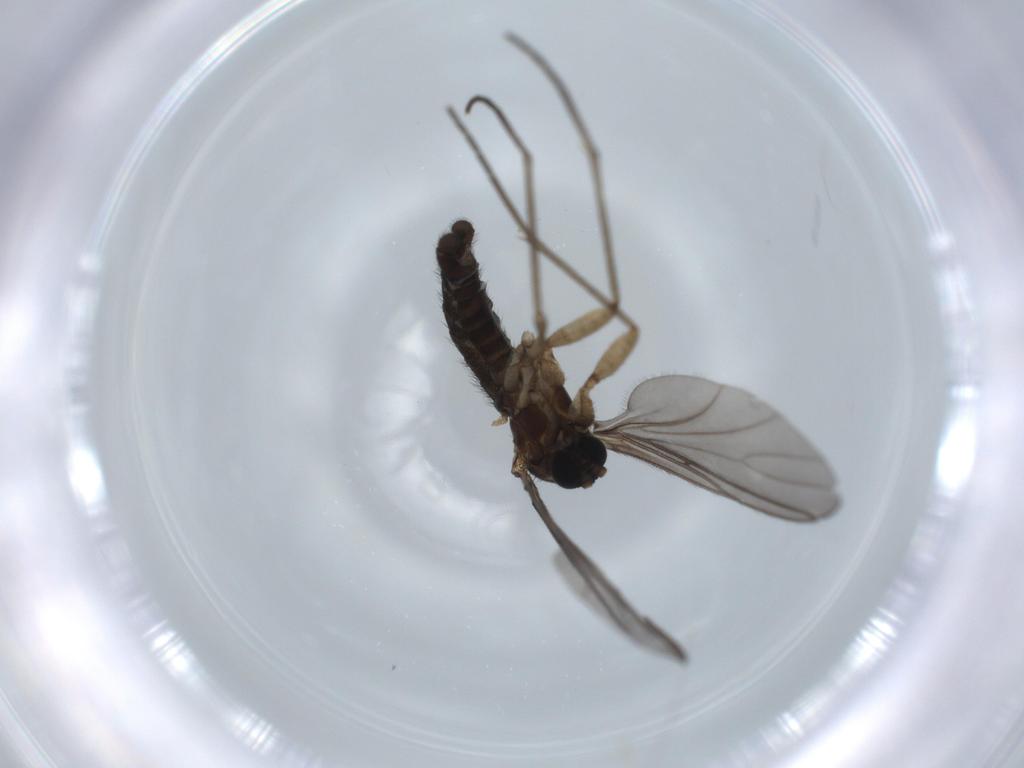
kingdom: Animalia
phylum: Arthropoda
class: Insecta
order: Diptera
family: Sciaridae
